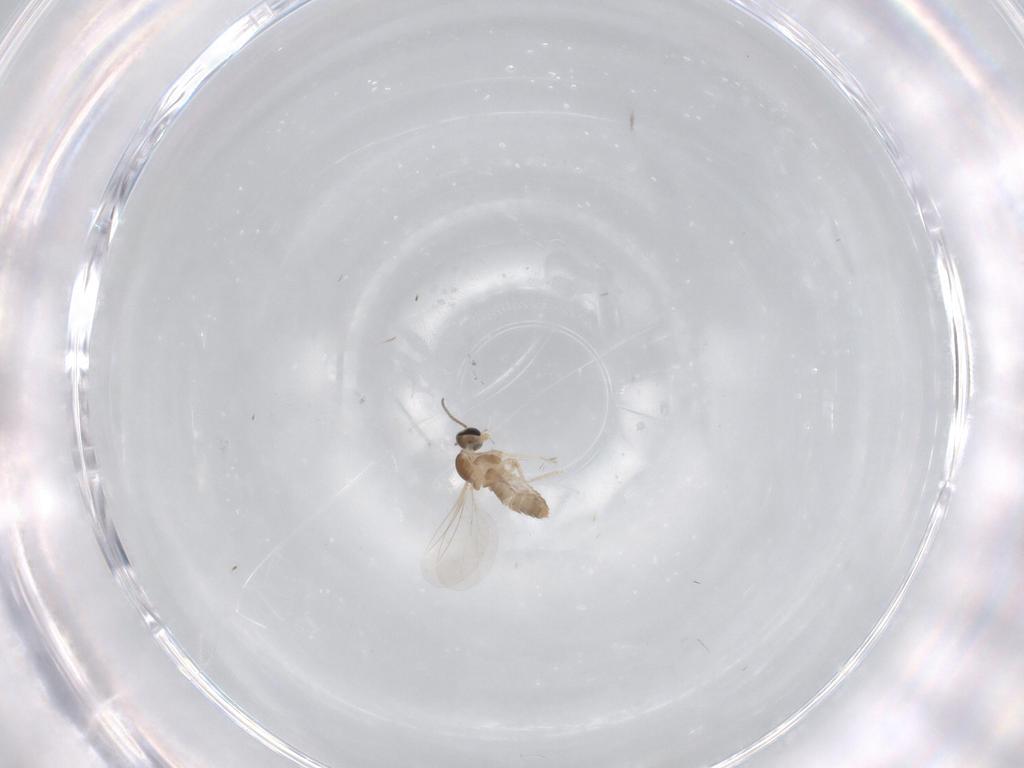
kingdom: Animalia
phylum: Arthropoda
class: Insecta
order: Diptera
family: Cecidomyiidae
